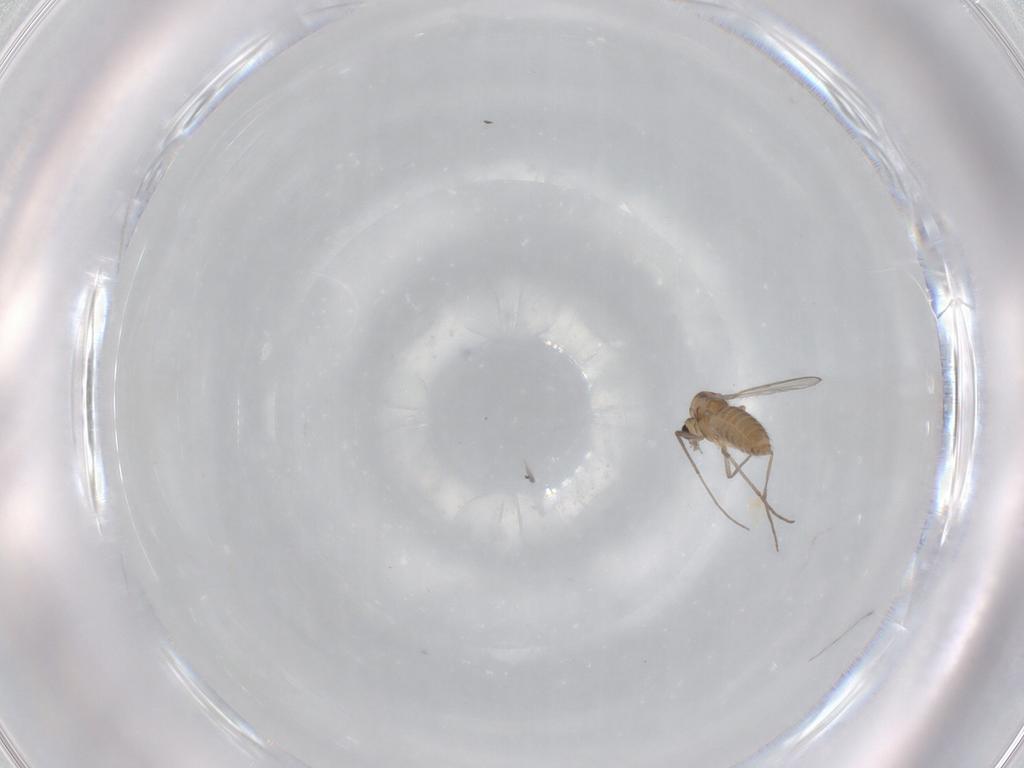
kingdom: Animalia
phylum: Arthropoda
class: Insecta
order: Diptera
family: Chironomidae
